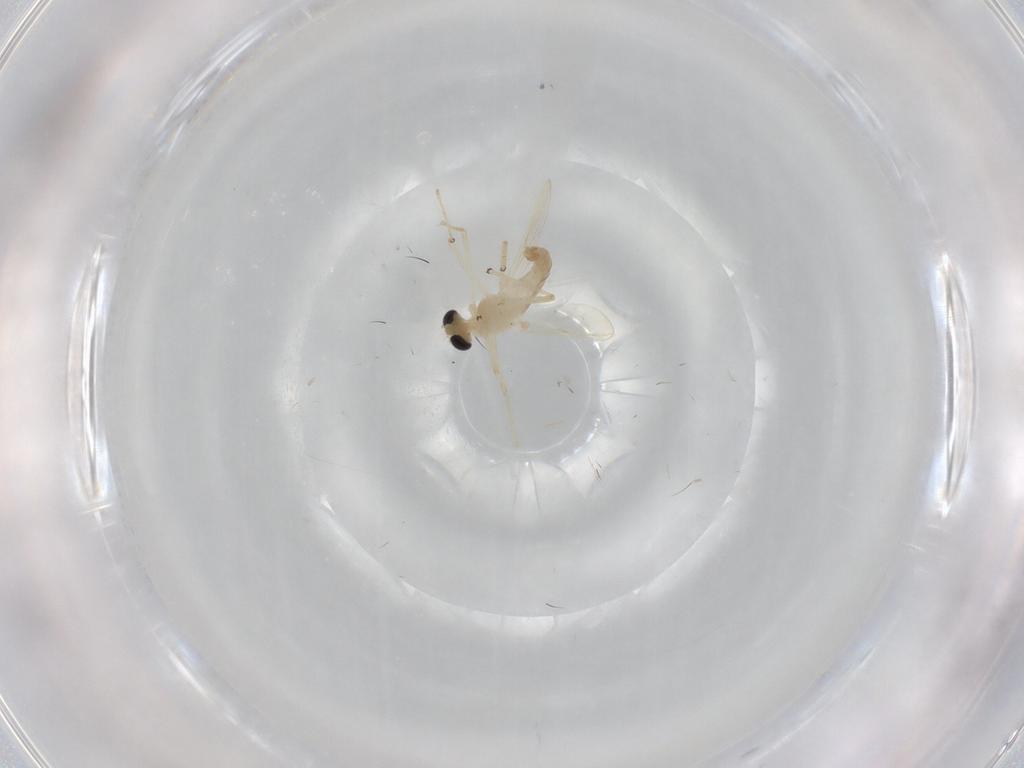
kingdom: Animalia
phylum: Arthropoda
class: Insecta
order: Diptera
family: Chironomidae
